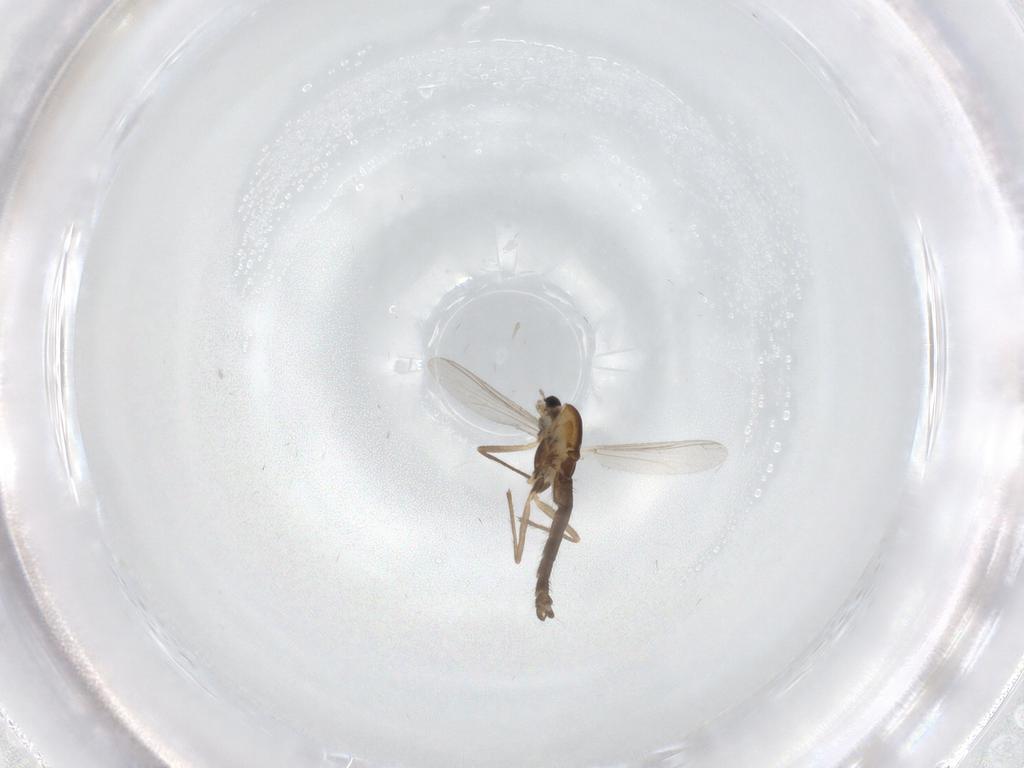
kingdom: Animalia
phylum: Arthropoda
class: Insecta
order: Diptera
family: Chironomidae
